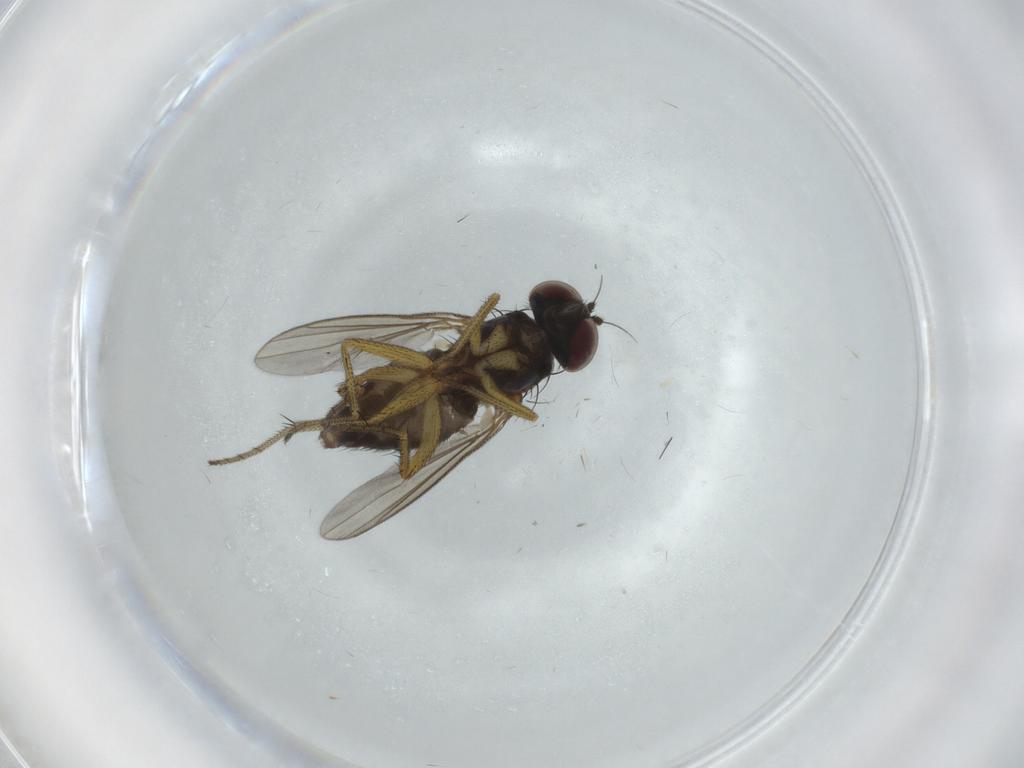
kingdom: Animalia
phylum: Arthropoda
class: Insecta
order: Diptera
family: Dolichopodidae
